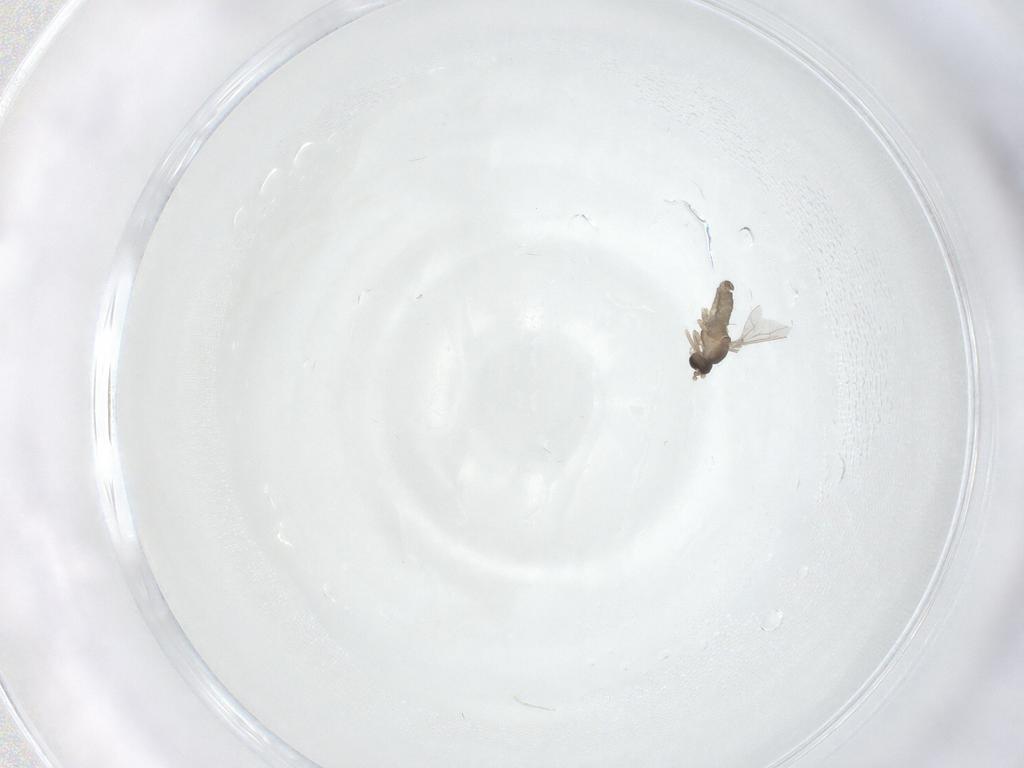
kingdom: Animalia
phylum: Arthropoda
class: Insecta
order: Diptera
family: Cecidomyiidae
